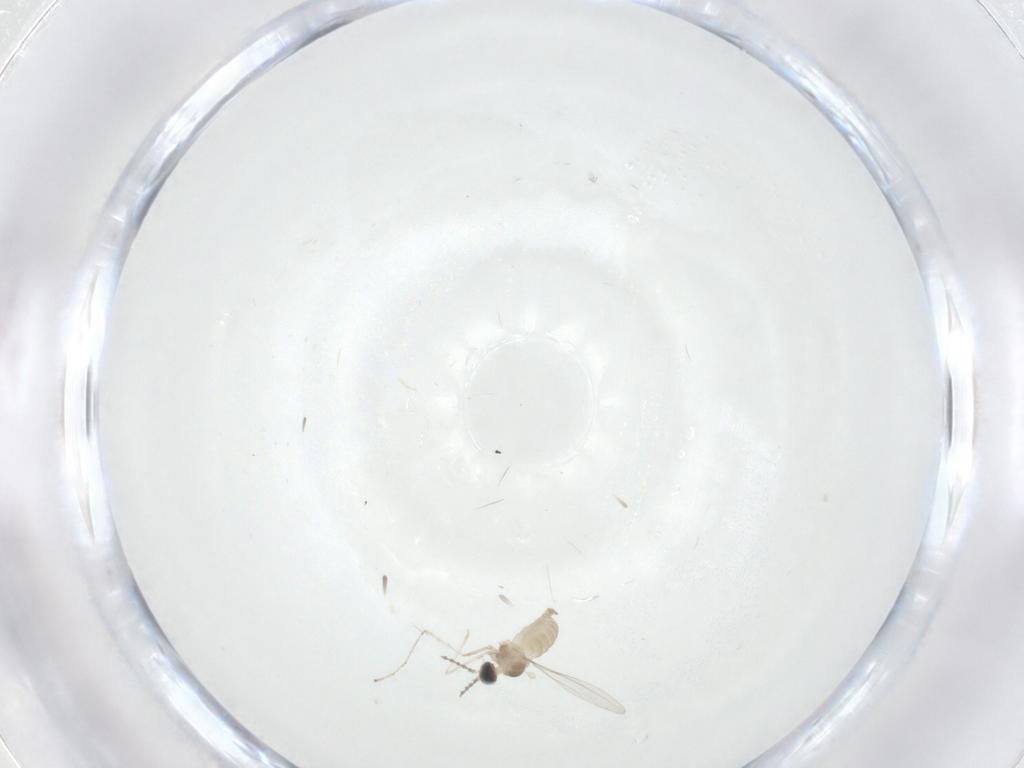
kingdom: Animalia
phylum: Arthropoda
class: Insecta
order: Diptera
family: Cecidomyiidae
